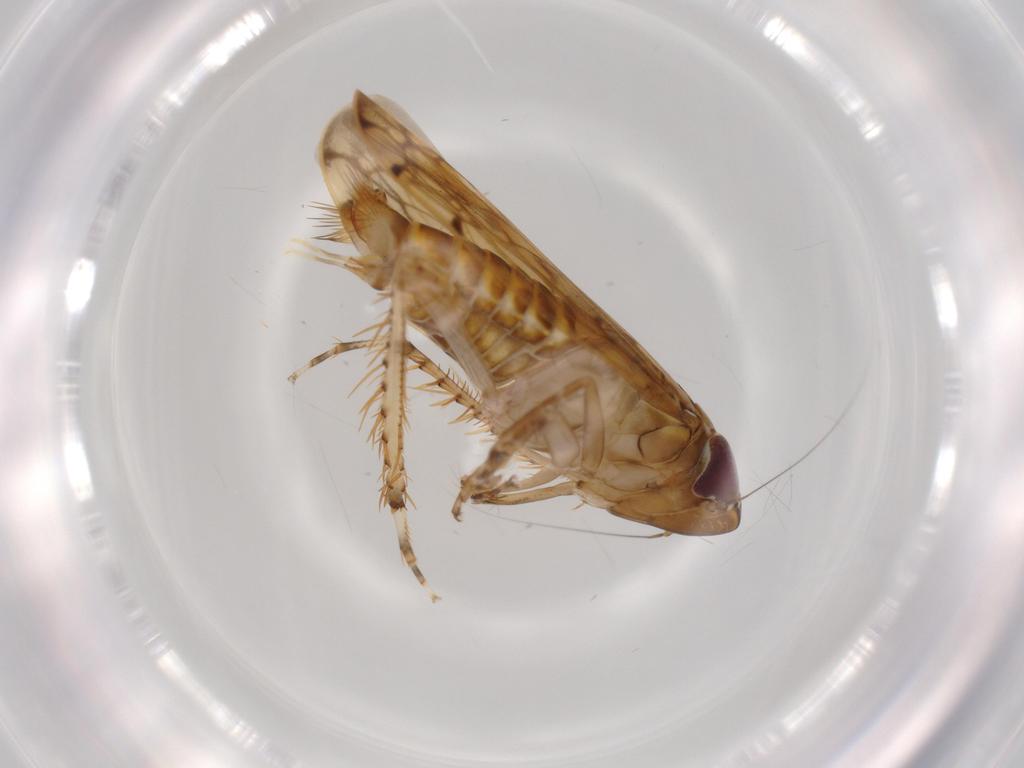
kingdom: Animalia
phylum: Arthropoda
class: Insecta
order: Hemiptera
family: Cicadellidae
